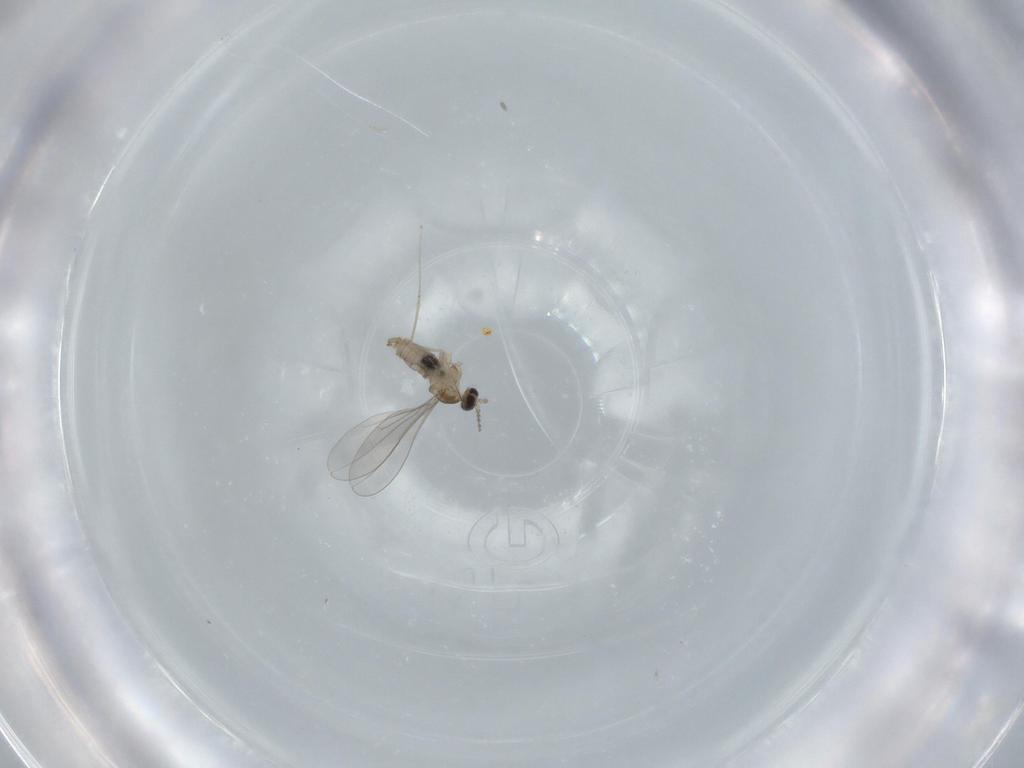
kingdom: Animalia
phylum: Arthropoda
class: Insecta
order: Diptera
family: Cecidomyiidae
